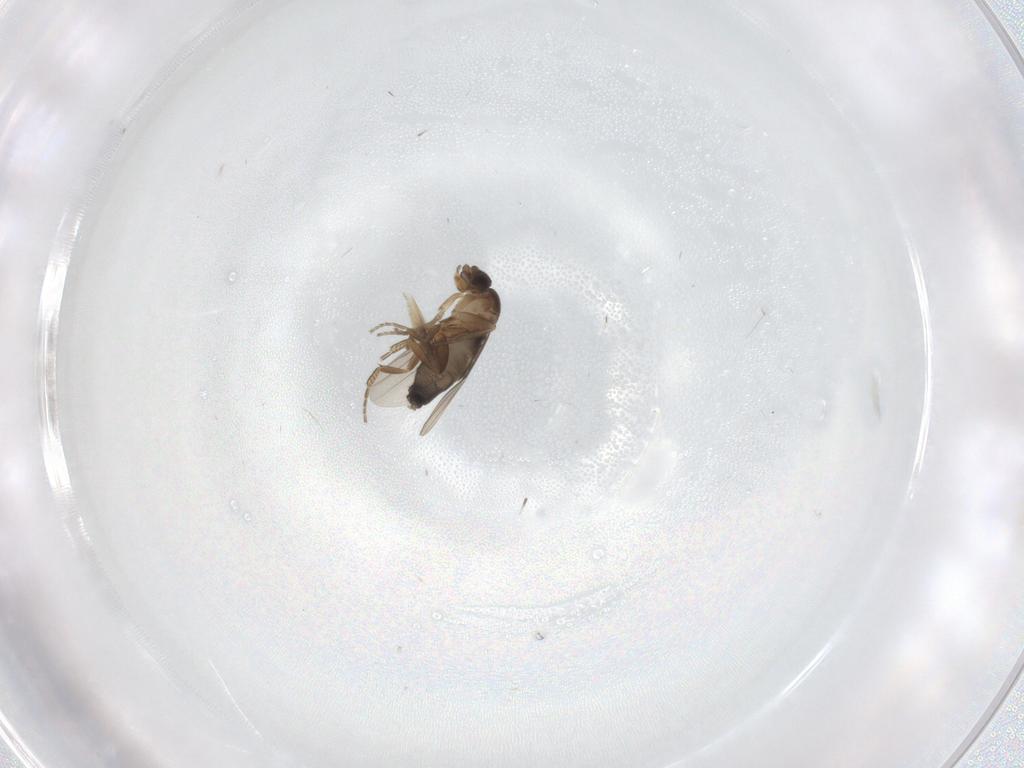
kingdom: Animalia
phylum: Arthropoda
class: Insecta
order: Diptera
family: Phoridae
